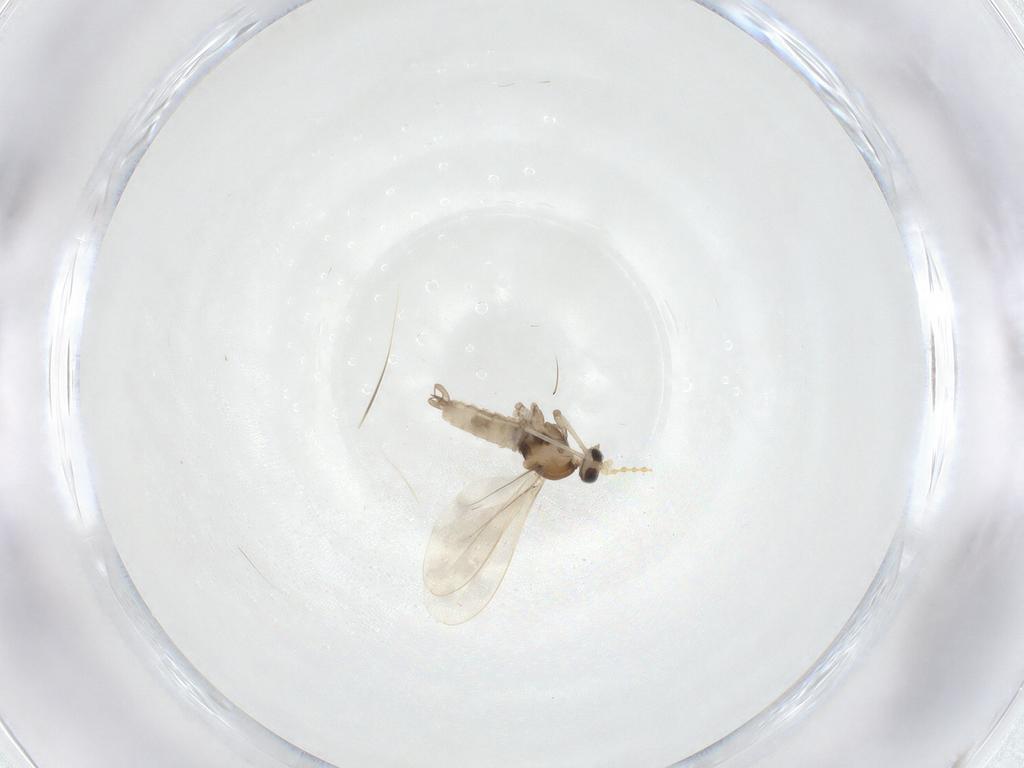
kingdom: Animalia
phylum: Arthropoda
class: Insecta
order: Diptera
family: Cecidomyiidae
